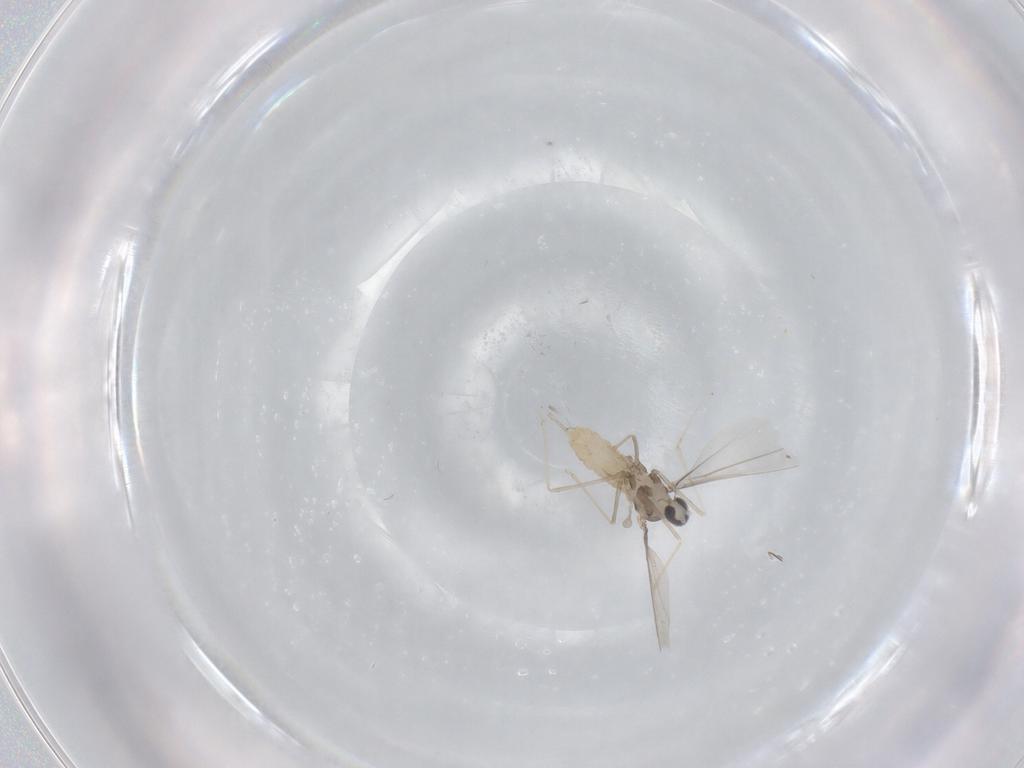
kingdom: Animalia
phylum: Arthropoda
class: Insecta
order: Diptera
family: Cecidomyiidae
